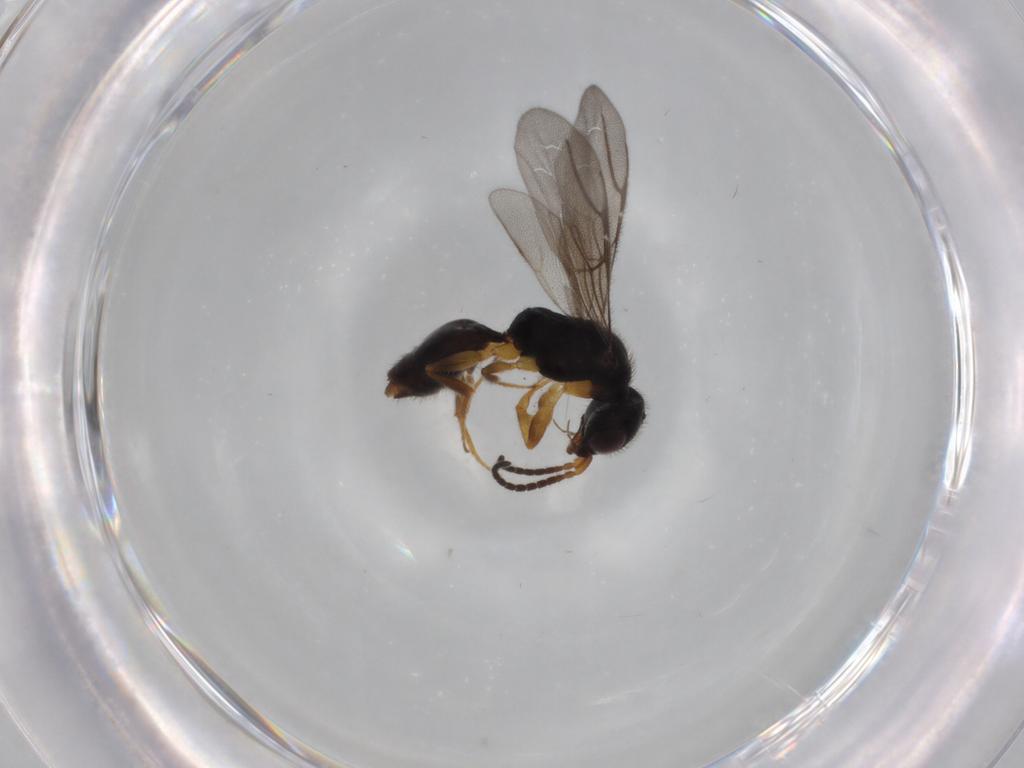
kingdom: Animalia
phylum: Arthropoda
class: Insecta
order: Hymenoptera
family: Bethylidae
